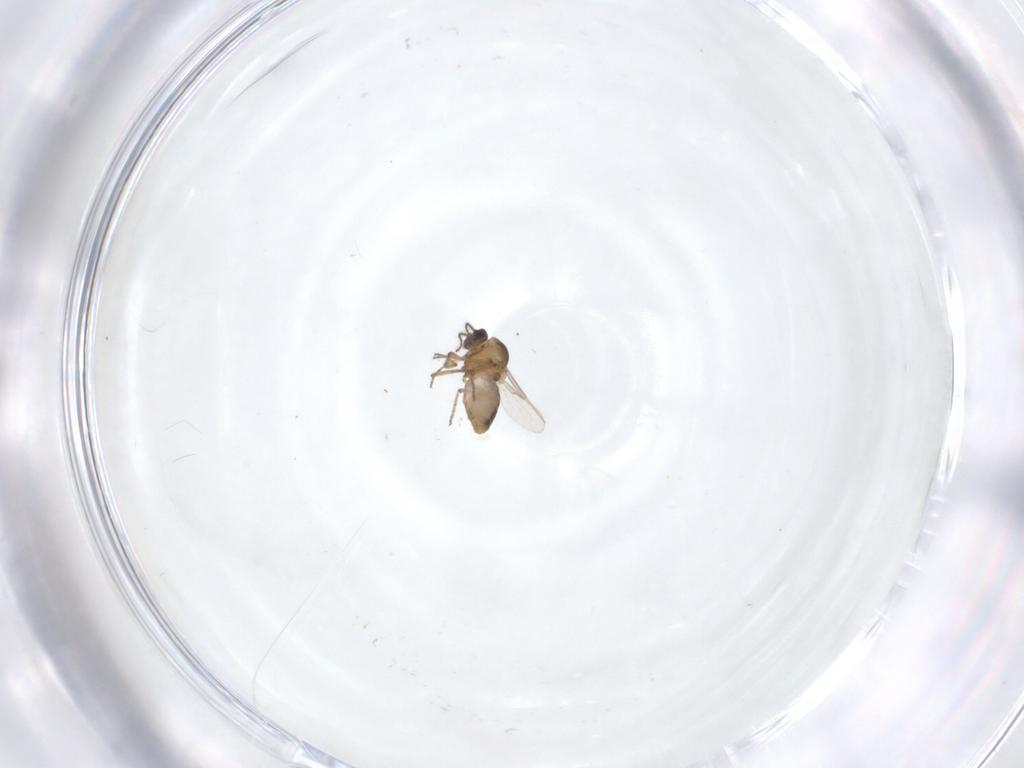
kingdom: Animalia
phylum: Arthropoda
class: Insecta
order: Diptera
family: Ceratopogonidae
